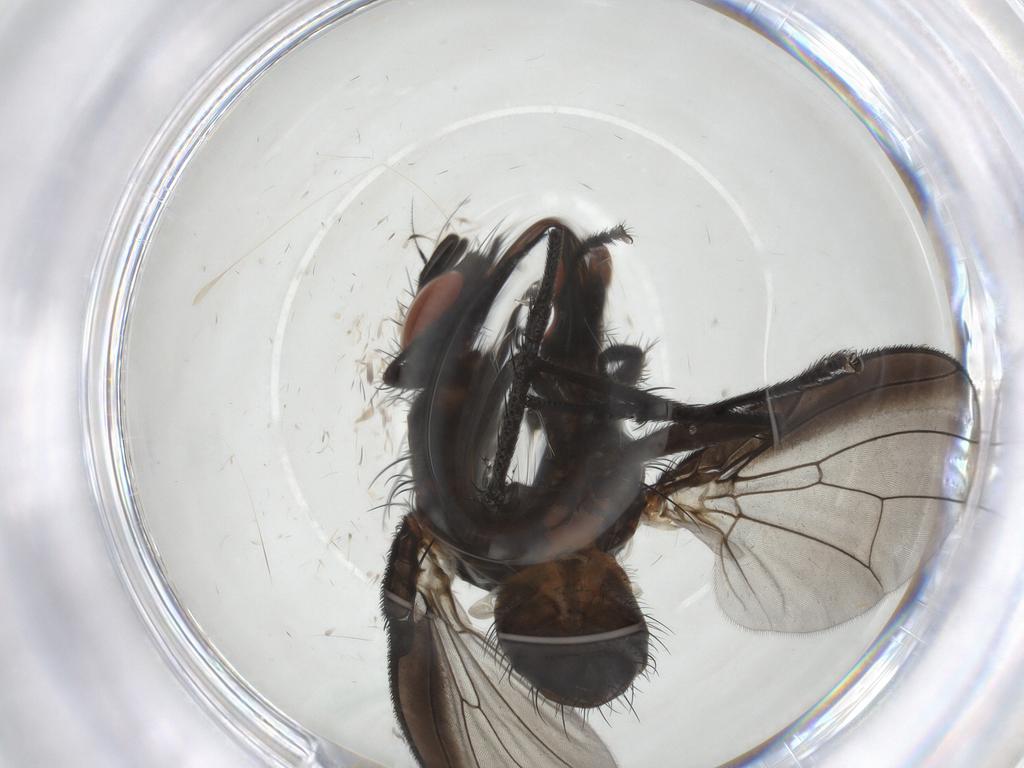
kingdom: Animalia
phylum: Arthropoda
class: Insecta
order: Diptera
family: Anthomyiidae
